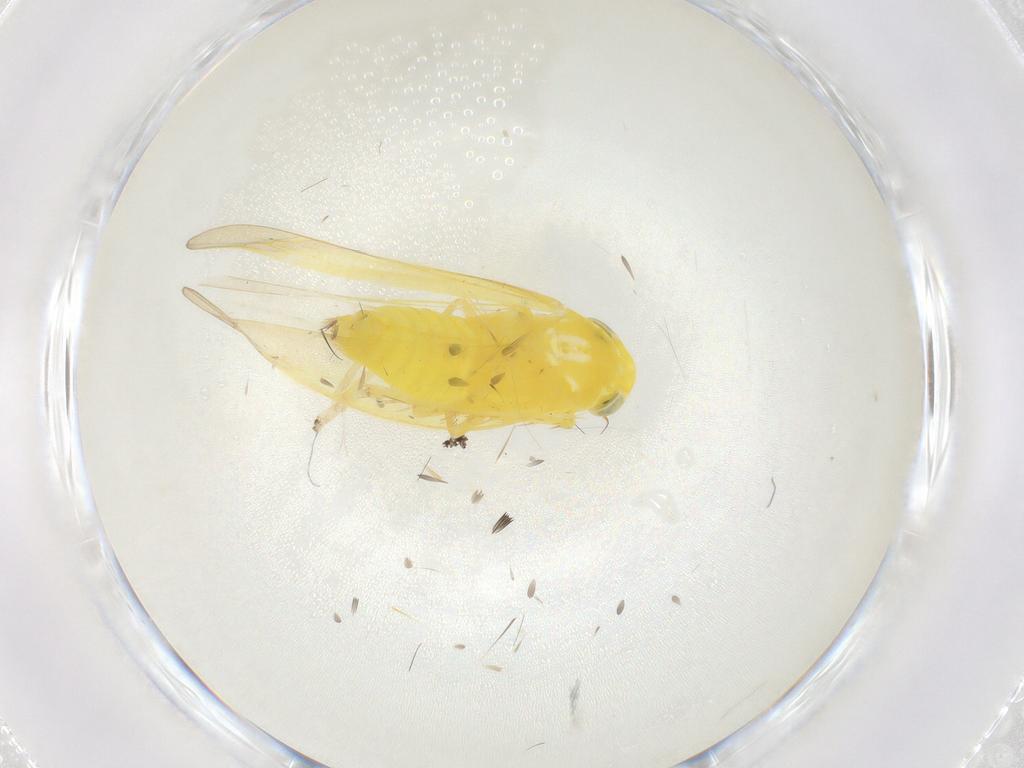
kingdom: Animalia
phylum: Arthropoda
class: Insecta
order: Hemiptera
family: Cicadellidae
